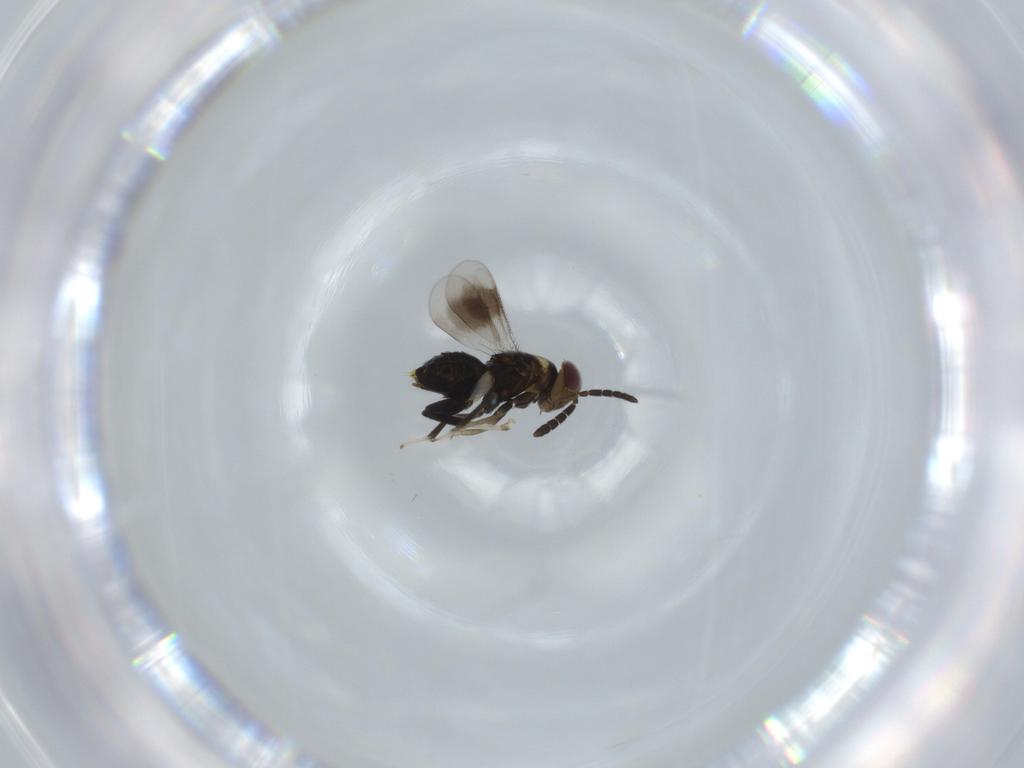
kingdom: Animalia
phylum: Arthropoda
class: Insecta
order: Hymenoptera
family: Aphelinidae
